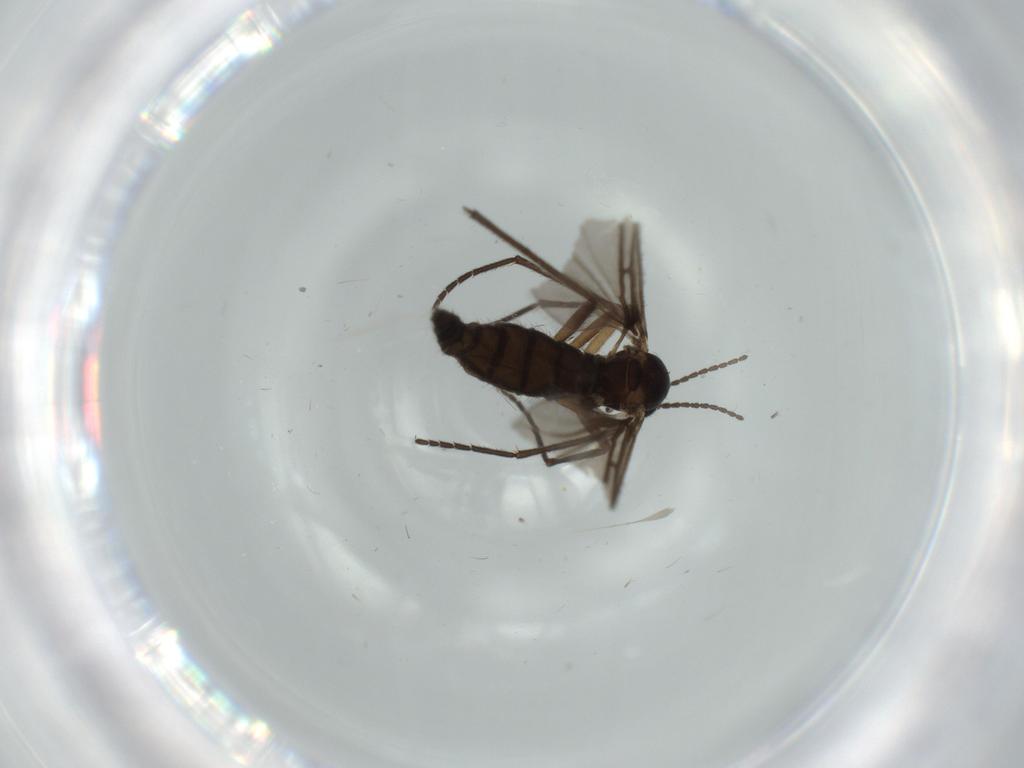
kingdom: Animalia
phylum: Arthropoda
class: Insecta
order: Diptera
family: Sciaridae
